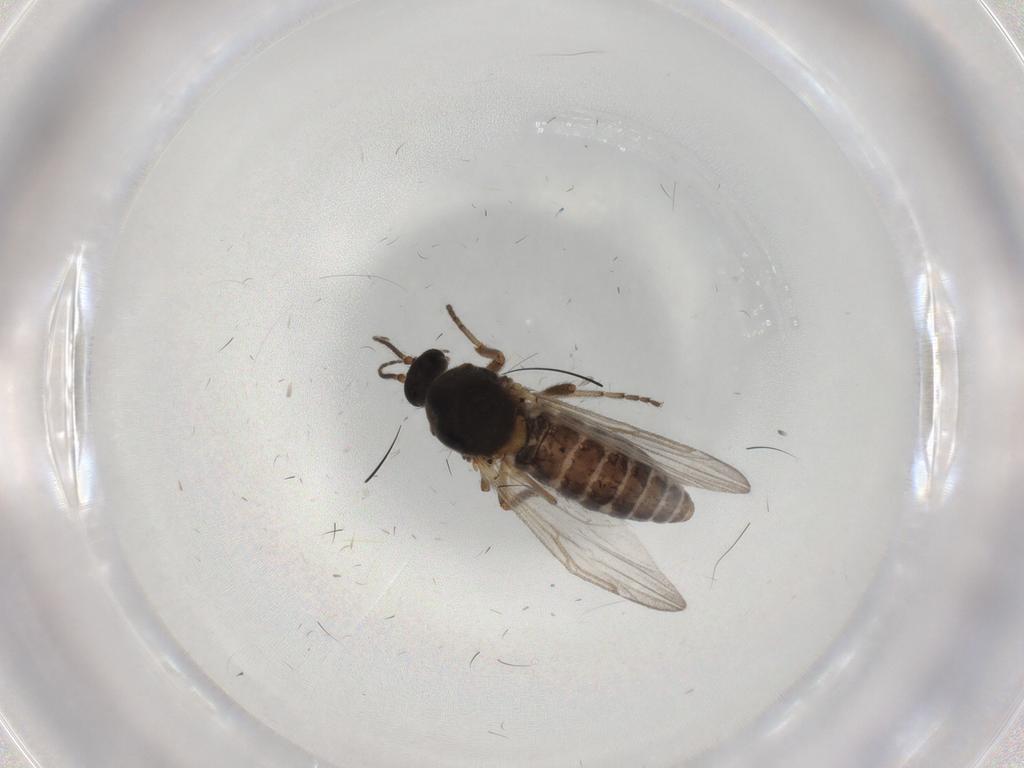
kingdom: Animalia
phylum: Arthropoda
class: Insecta
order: Diptera
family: Ceratopogonidae
